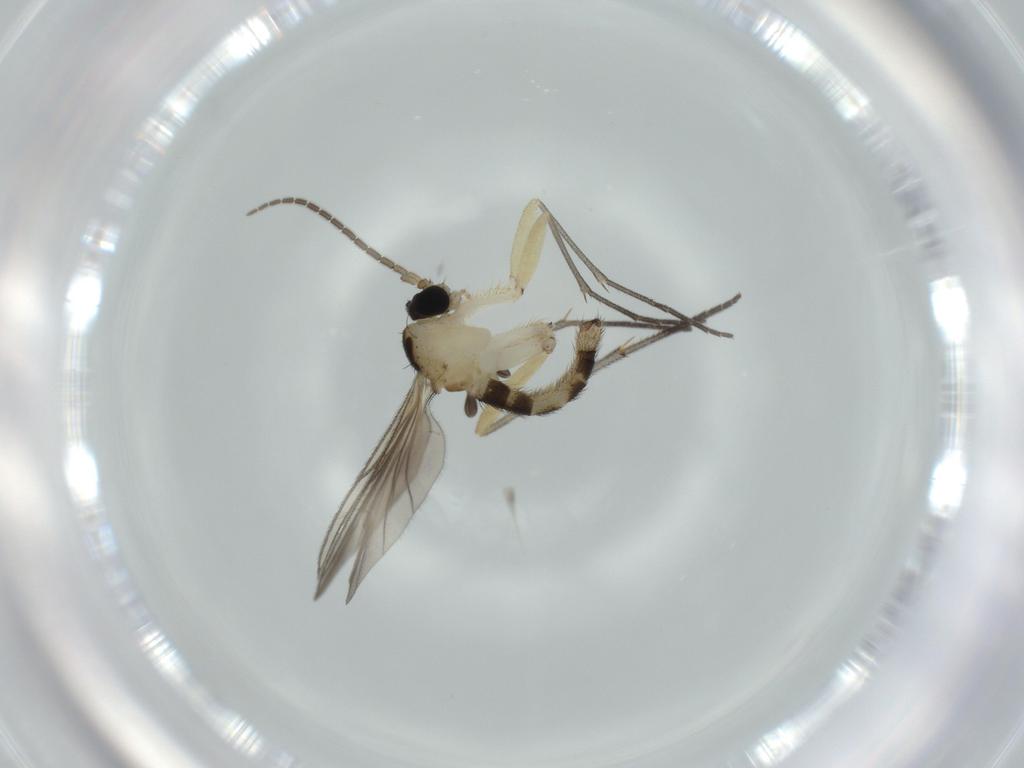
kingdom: Animalia
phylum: Arthropoda
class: Insecta
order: Diptera
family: Sciaridae
